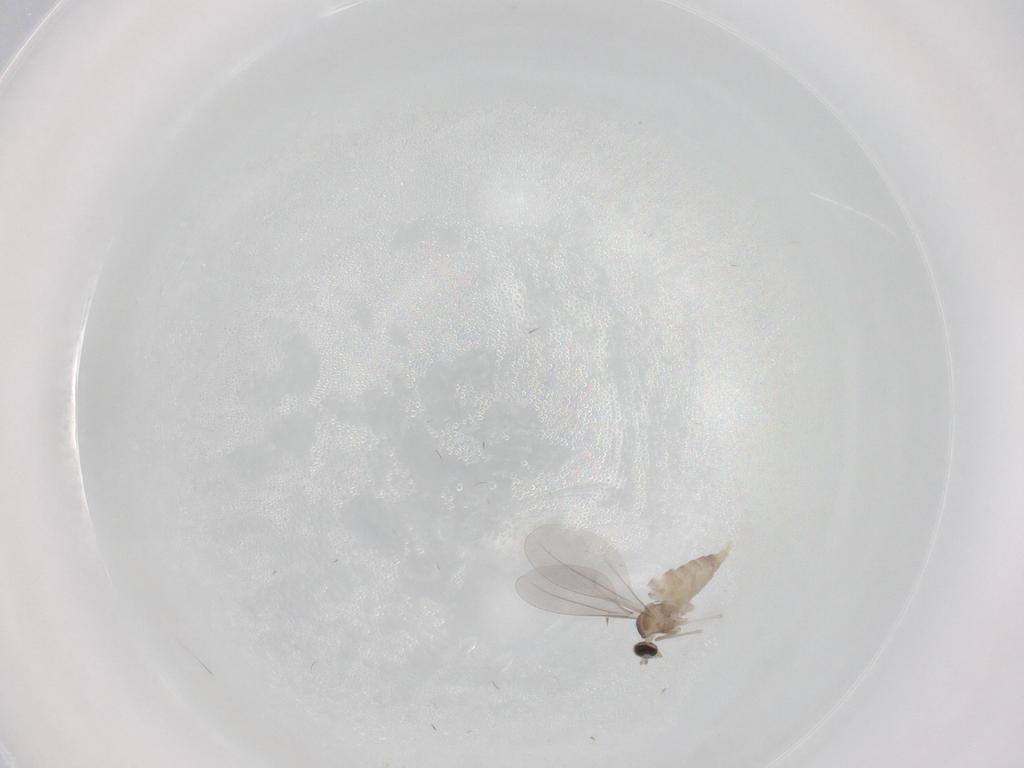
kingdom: Animalia
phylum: Arthropoda
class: Insecta
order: Diptera
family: Cecidomyiidae
